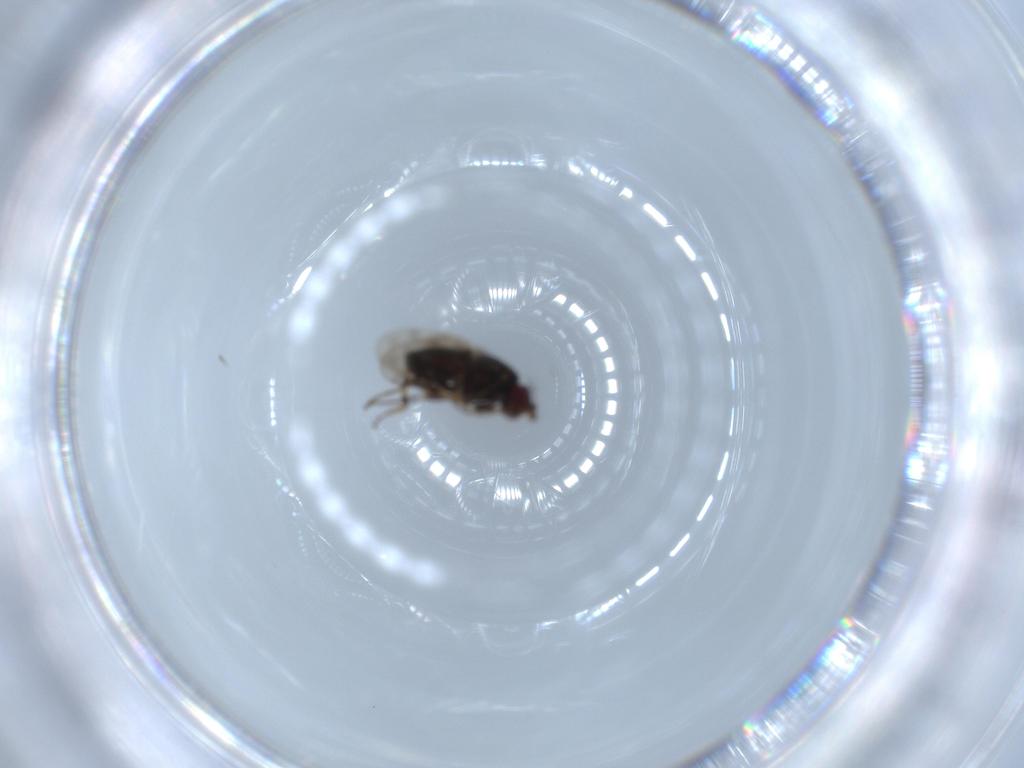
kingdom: Animalia
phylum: Arthropoda
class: Insecta
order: Diptera
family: Sphaeroceridae
